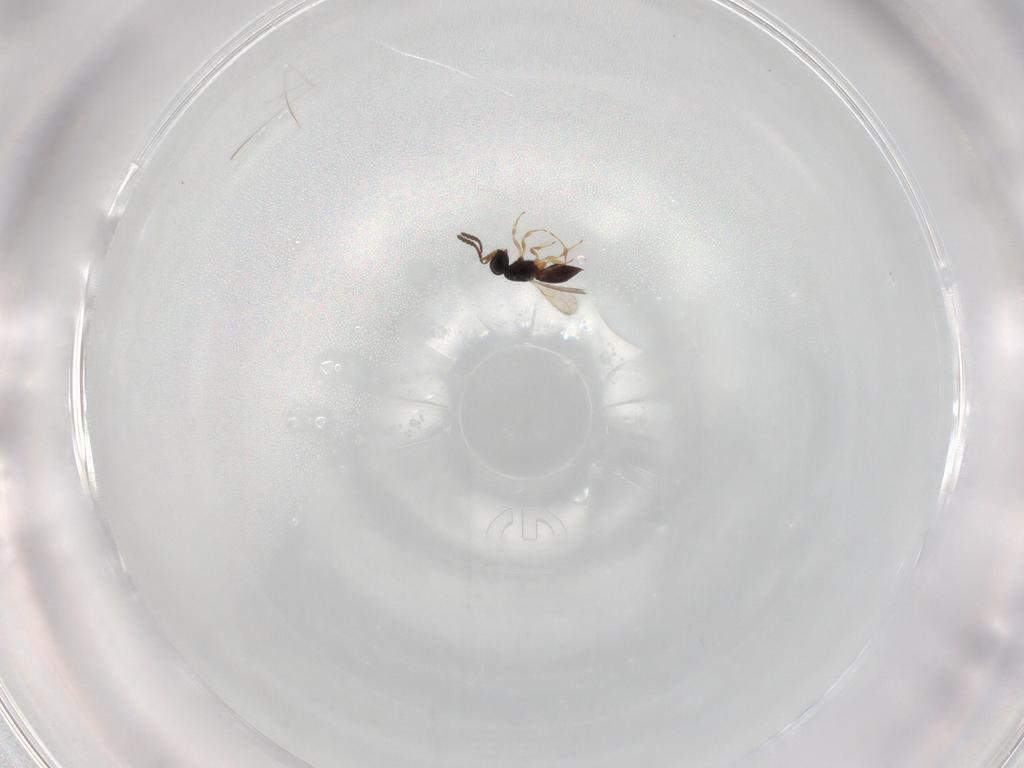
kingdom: Animalia
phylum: Arthropoda
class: Insecta
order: Hymenoptera
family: Scelionidae
